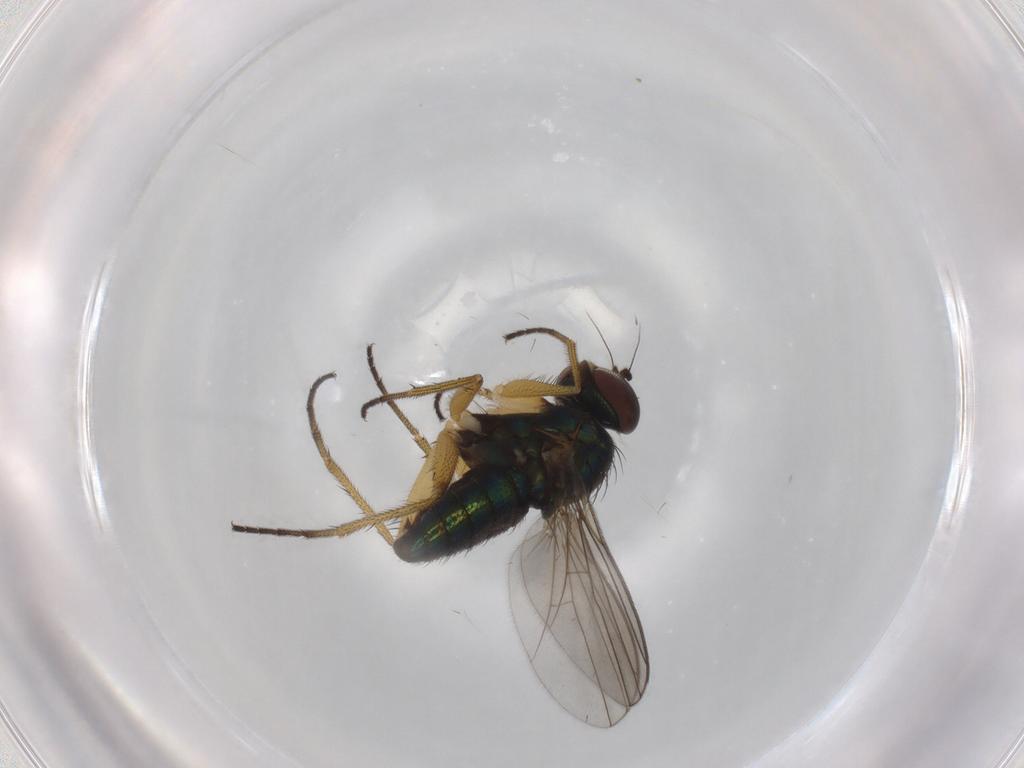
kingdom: Animalia
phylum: Arthropoda
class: Insecta
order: Diptera
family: Dolichopodidae
